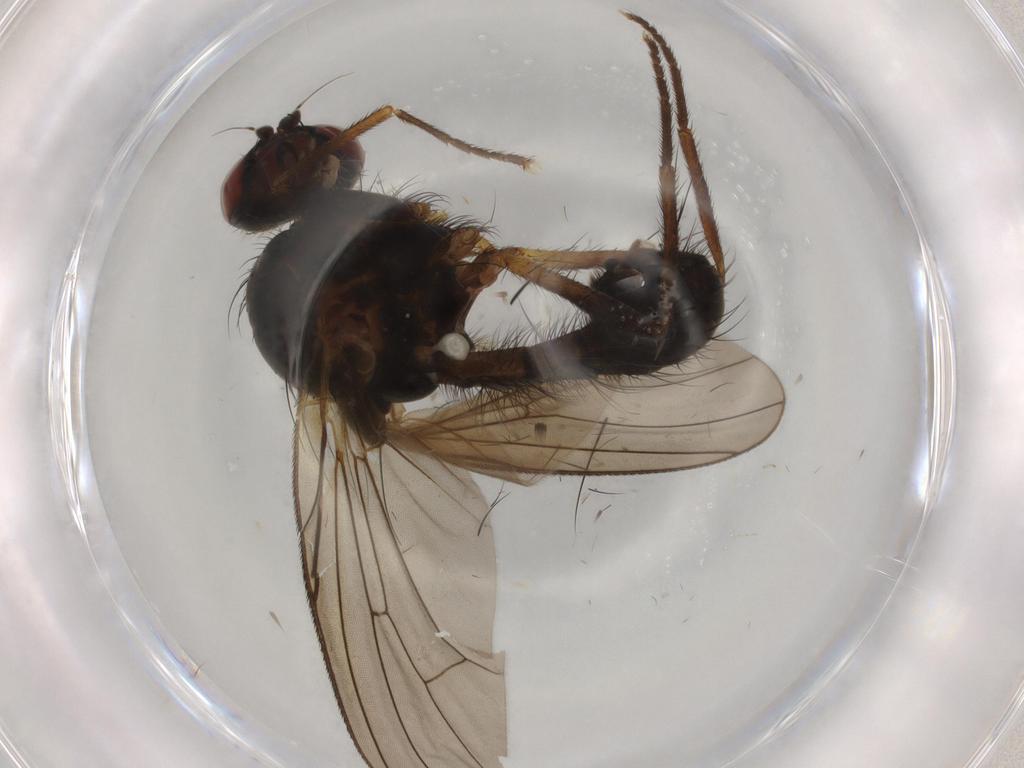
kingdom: Animalia
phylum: Arthropoda
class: Insecta
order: Diptera
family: Anthomyiidae
